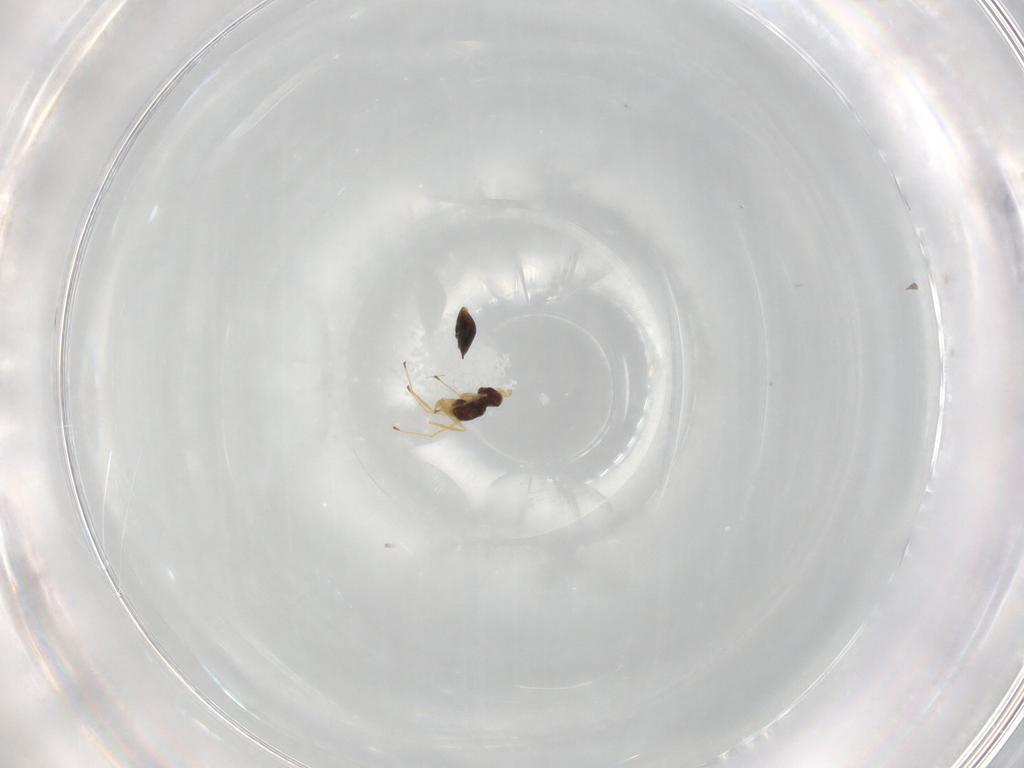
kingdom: Animalia
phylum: Arthropoda
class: Insecta
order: Hymenoptera
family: Mymaridae
